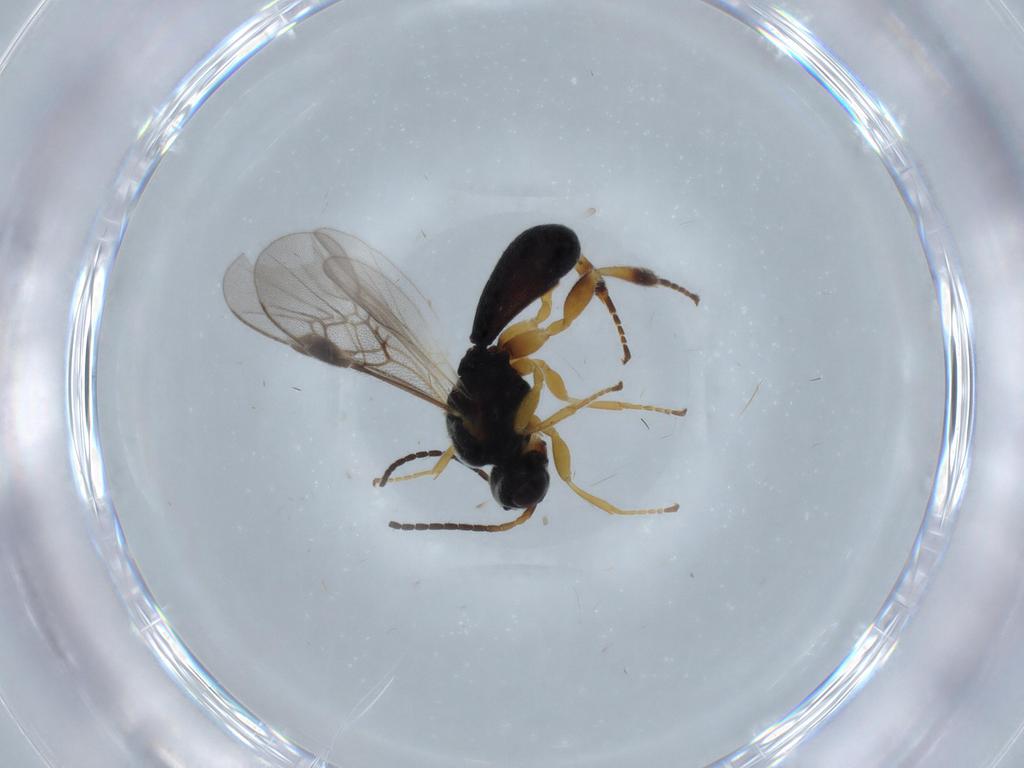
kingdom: Animalia
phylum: Arthropoda
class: Insecta
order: Hymenoptera
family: Braconidae
